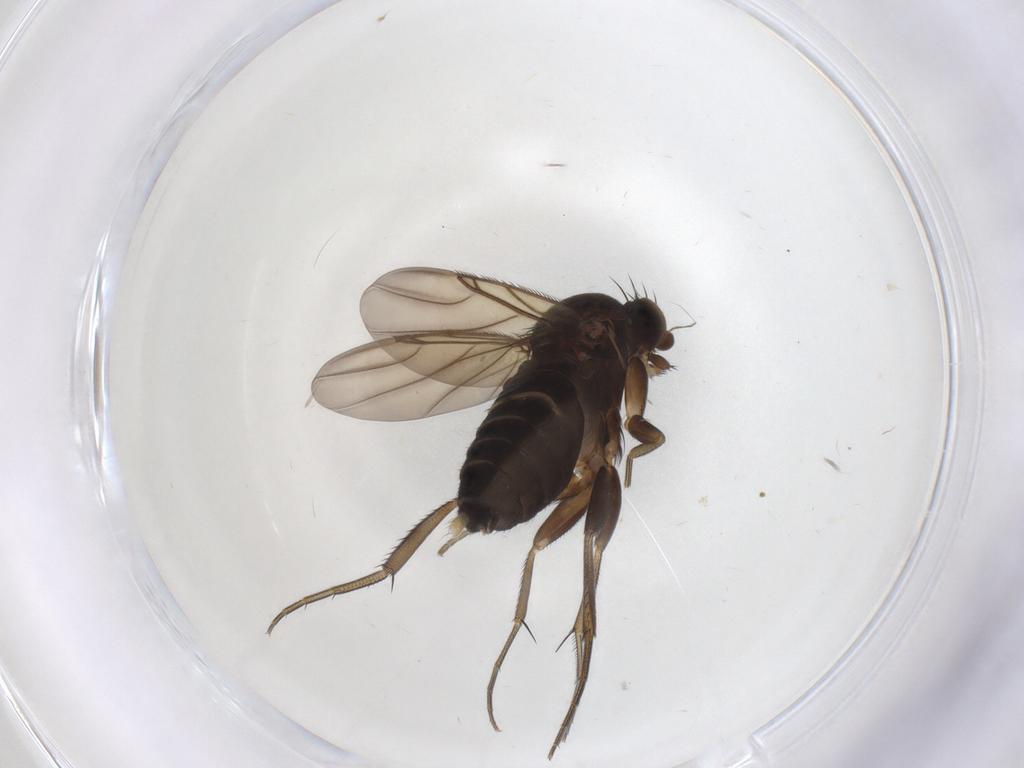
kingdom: Animalia
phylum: Arthropoda
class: Insecta
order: Diptera
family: Phoridae
